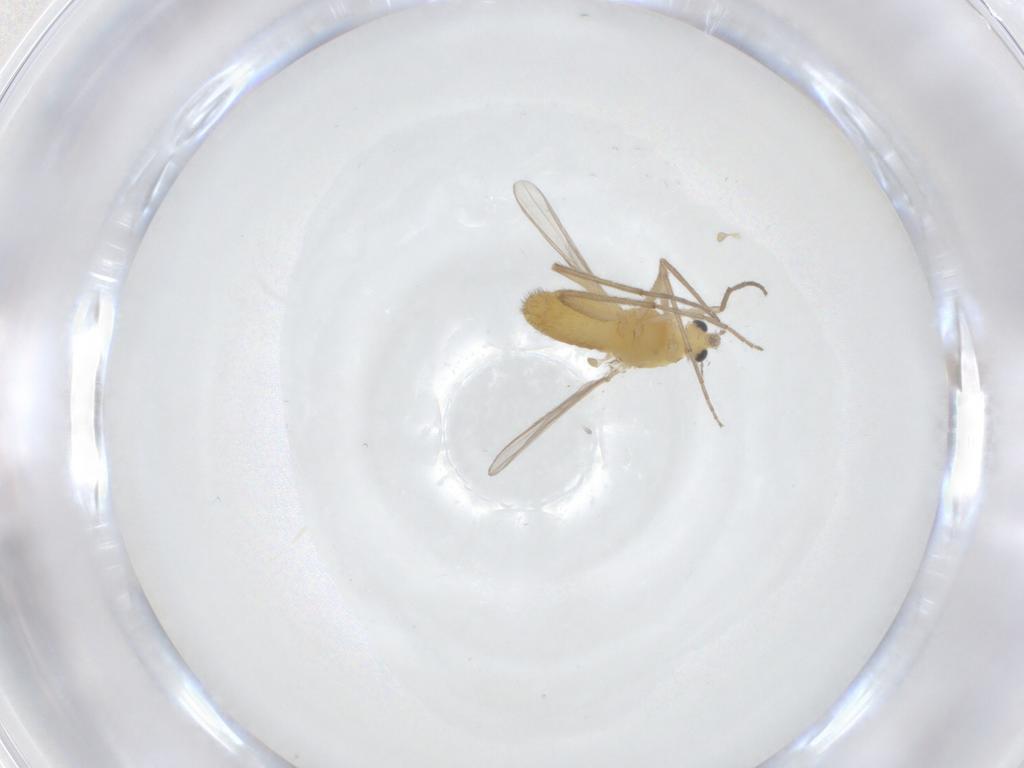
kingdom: Animalia
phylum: Arthropoda
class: Insecta
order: Diptera
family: Chironomidae
